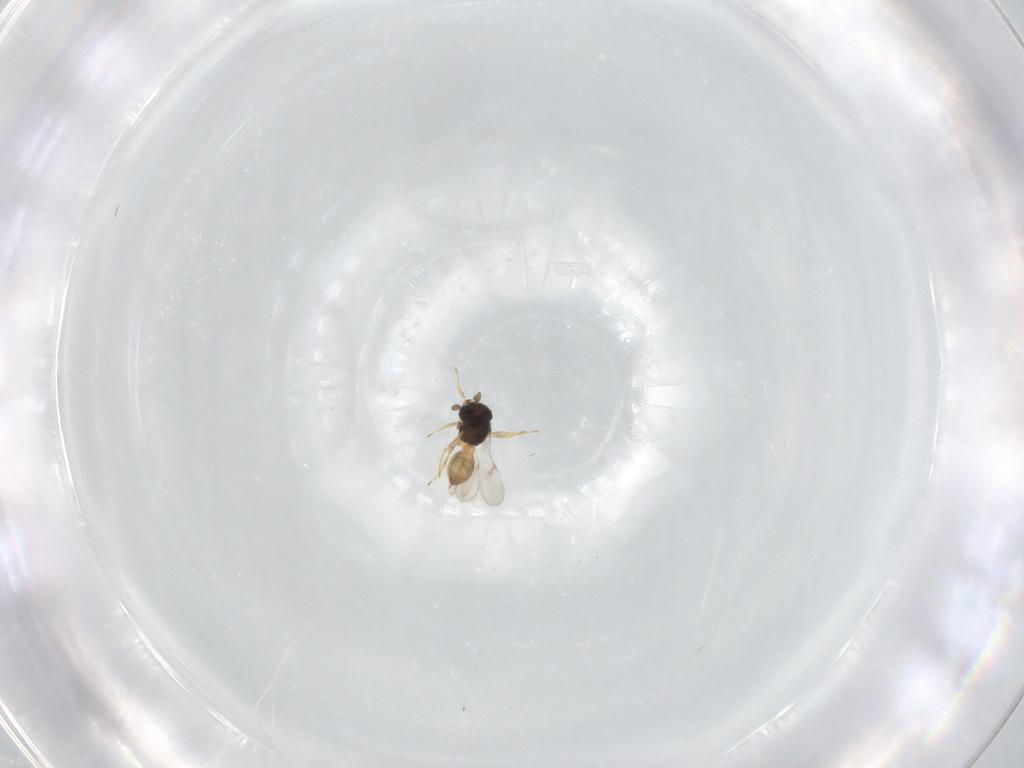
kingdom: Animalia
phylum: Arthropoda
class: Insecta
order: Hymenoptera
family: Scelionidae
